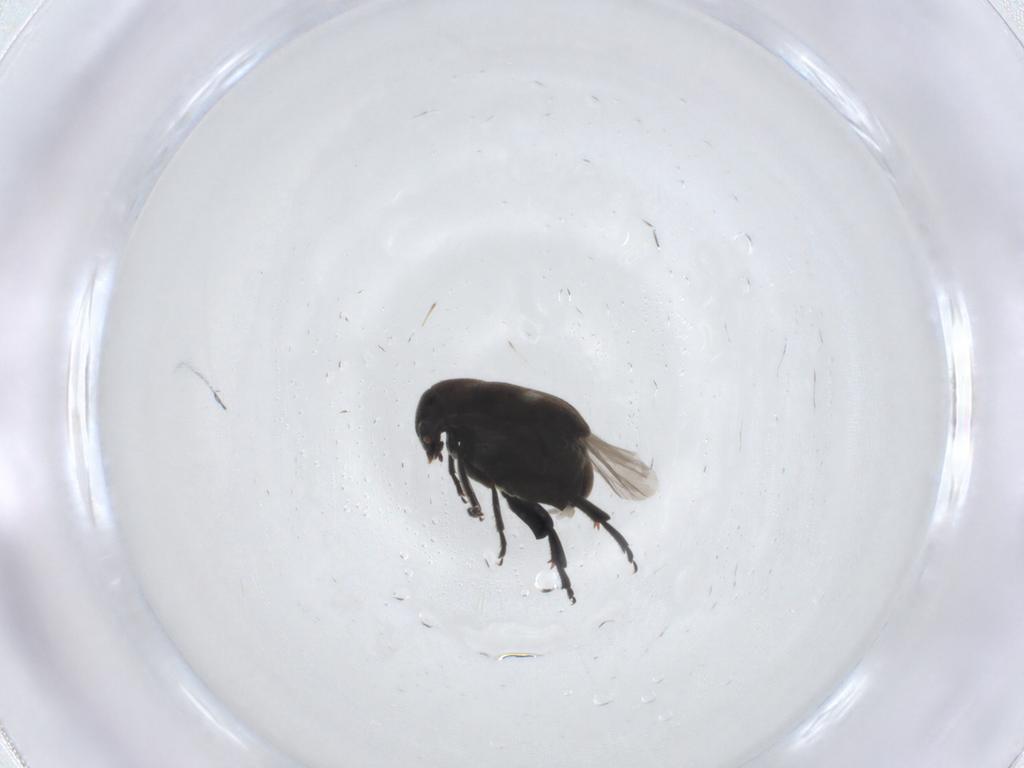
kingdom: Animalia
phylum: Arthropoda
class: Insecta
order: Coleoptera
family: Chrysomelidae
